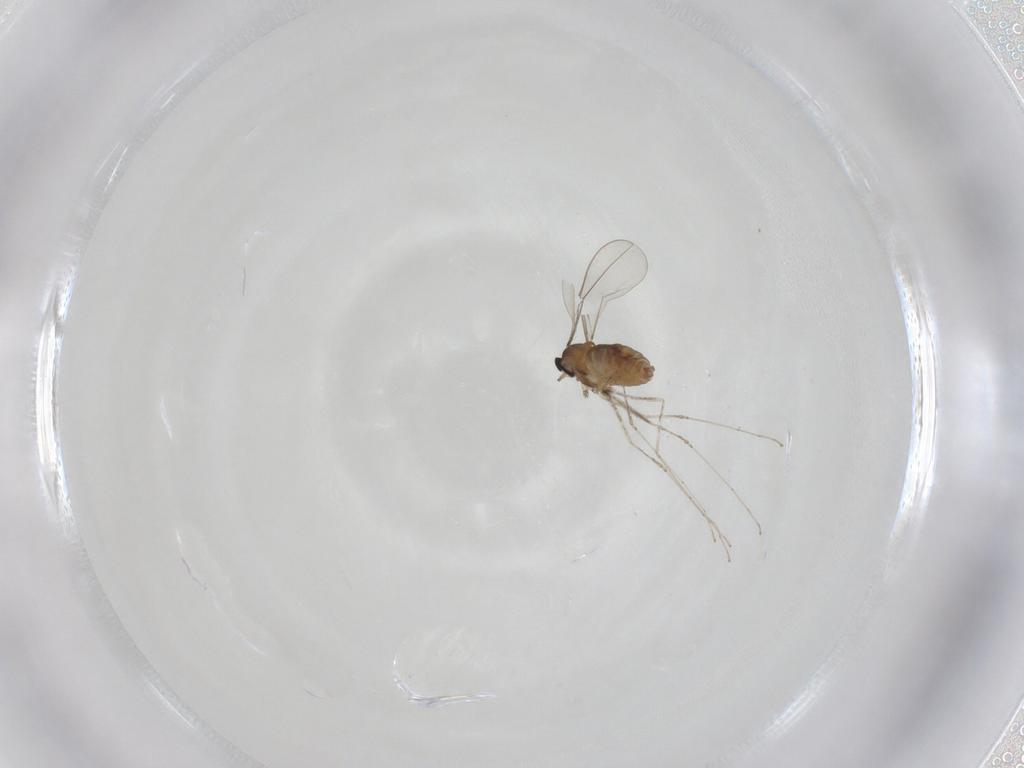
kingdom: Animalia
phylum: Arthropoda
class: Insecta
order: Diptera
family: Cecidomyiidae
